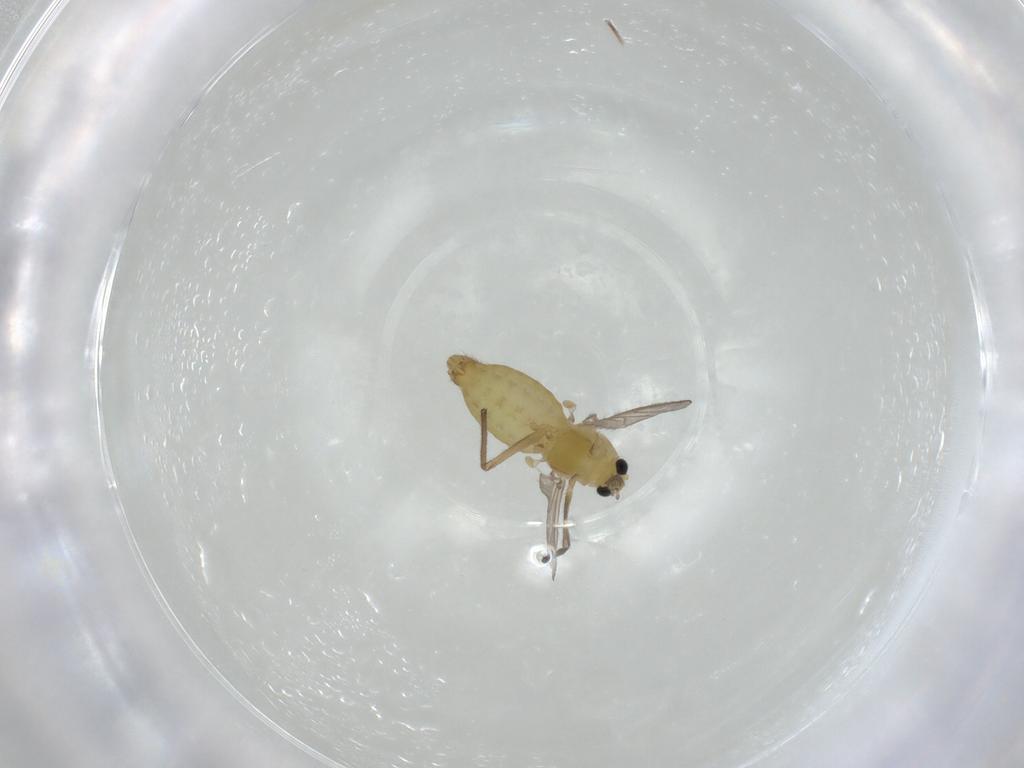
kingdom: Animalia
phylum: Arthropoda
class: Insecta
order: Diptera
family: Chironomidae
